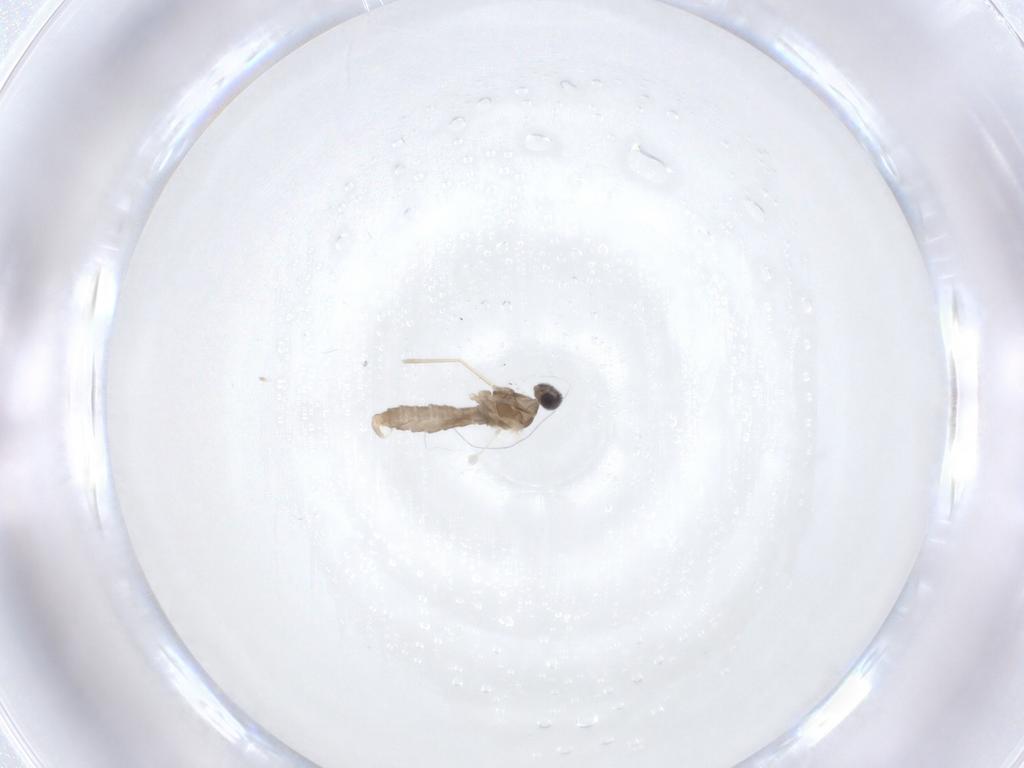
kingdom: Animalia
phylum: Arthropoda
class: Insecta
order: Diptera
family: Cecidomyiidae
